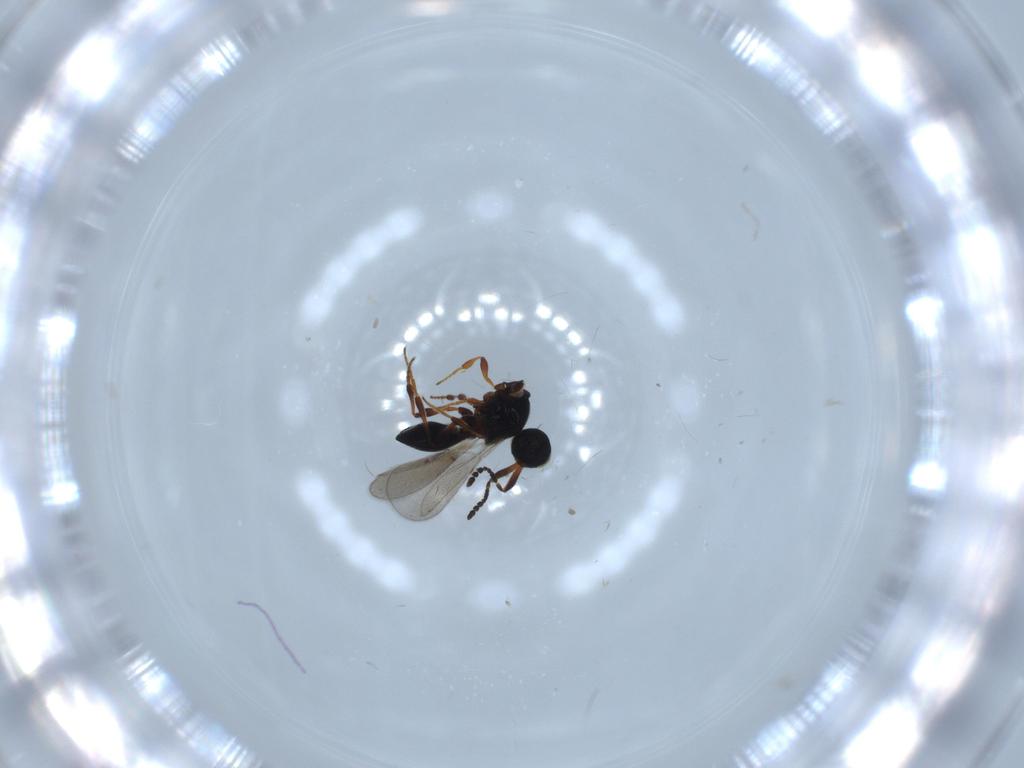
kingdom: Animalia
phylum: Arthropoda
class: Insecta
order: Hymenoptera
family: Platygastridae
